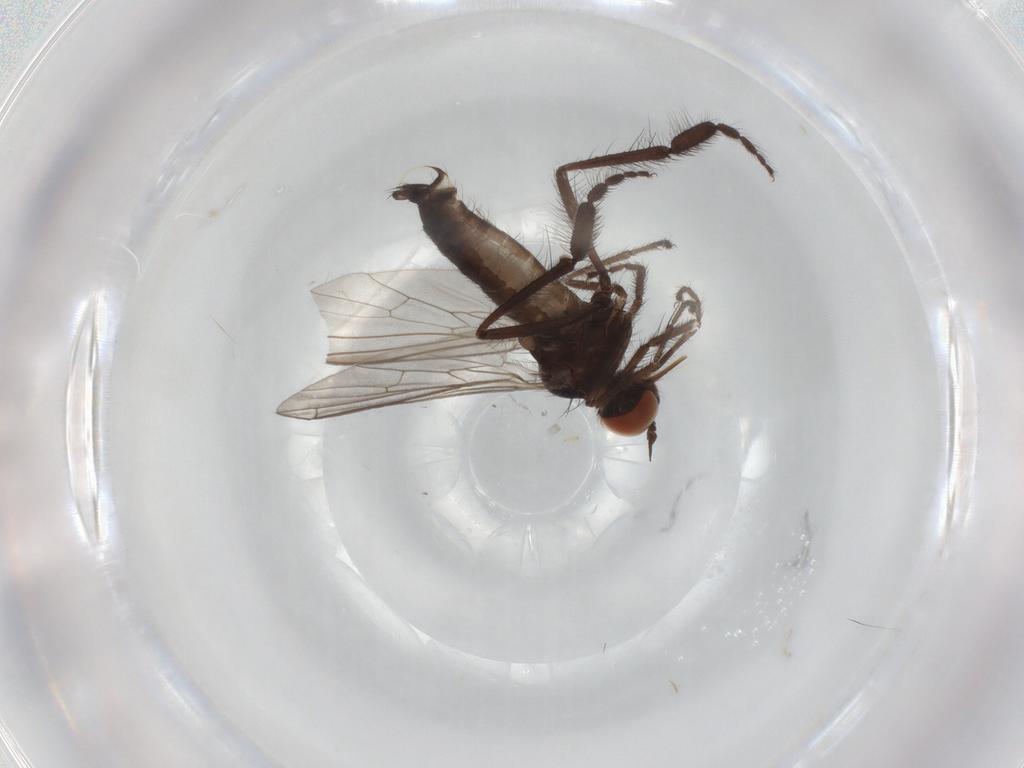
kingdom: Animalia
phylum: Arthropoda
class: Insecta
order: Diptera
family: Empididae
